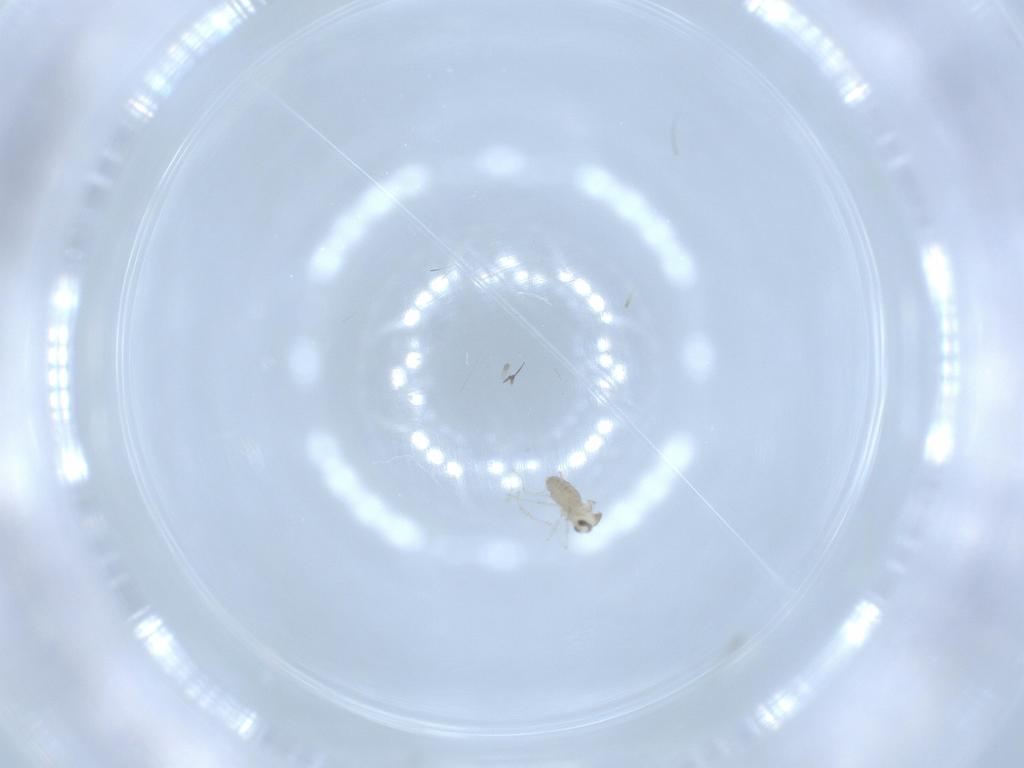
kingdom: Animalia
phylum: Arthropoda
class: Insecta
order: Diptera
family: Cecidomyiidae
